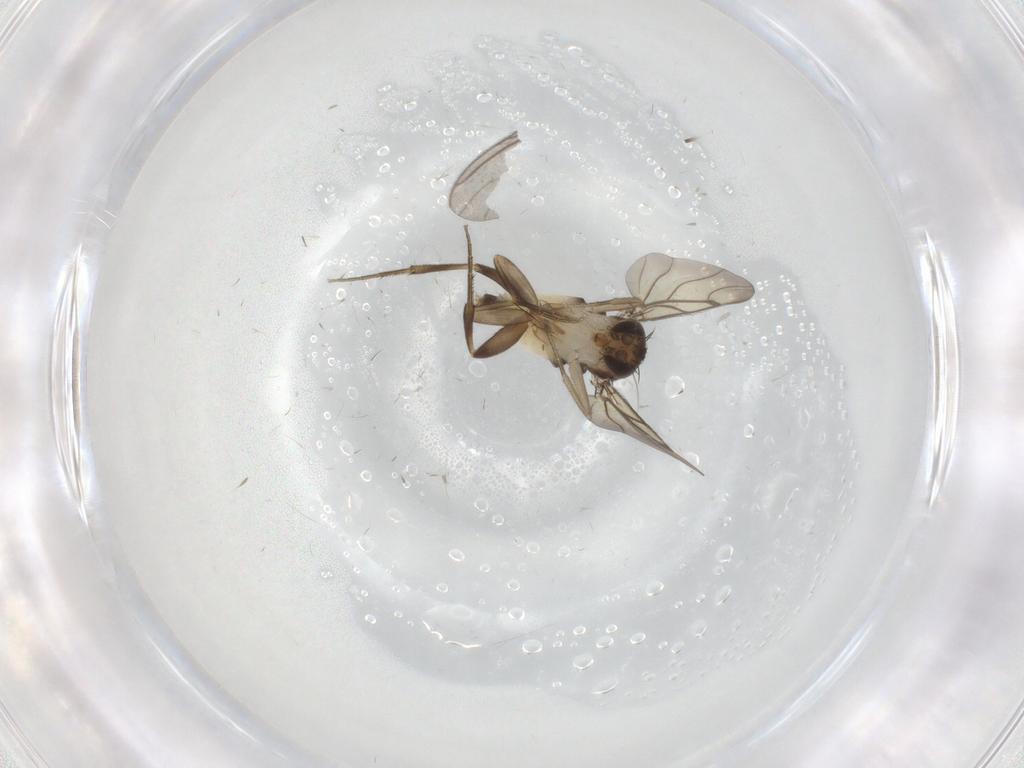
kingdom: Animalia
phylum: Arthropoda
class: Insecta
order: Diptera
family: Phoridae
